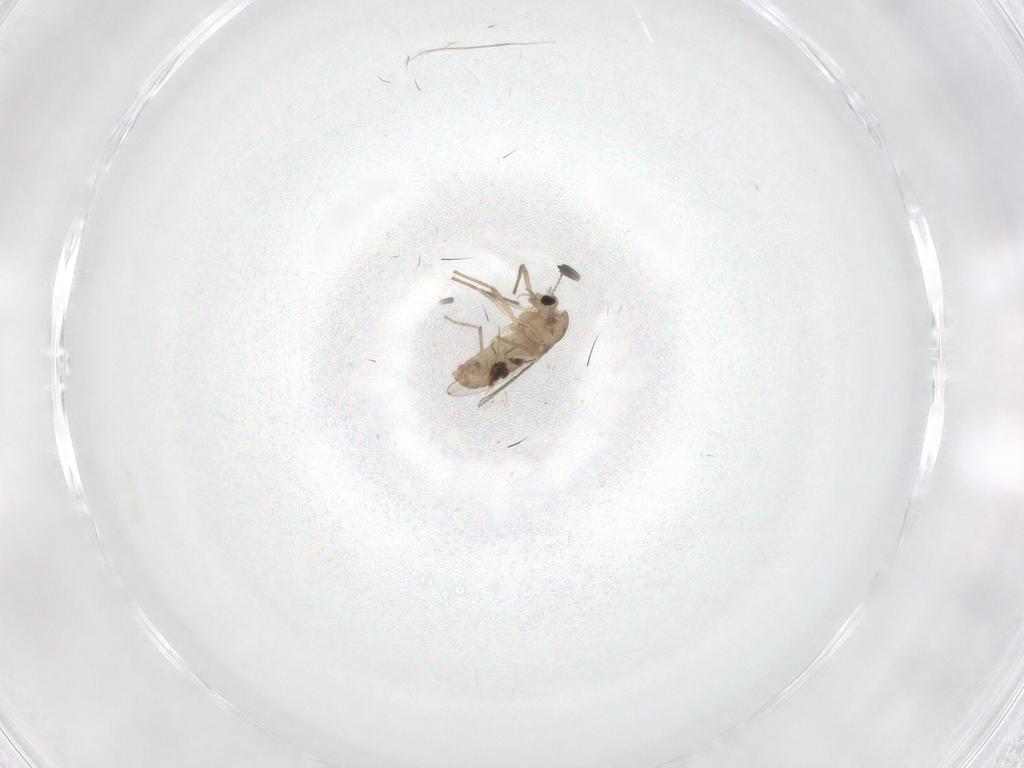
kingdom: Animalia
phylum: Arthropoda
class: Insecta
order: Diptera
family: Chironomidae
